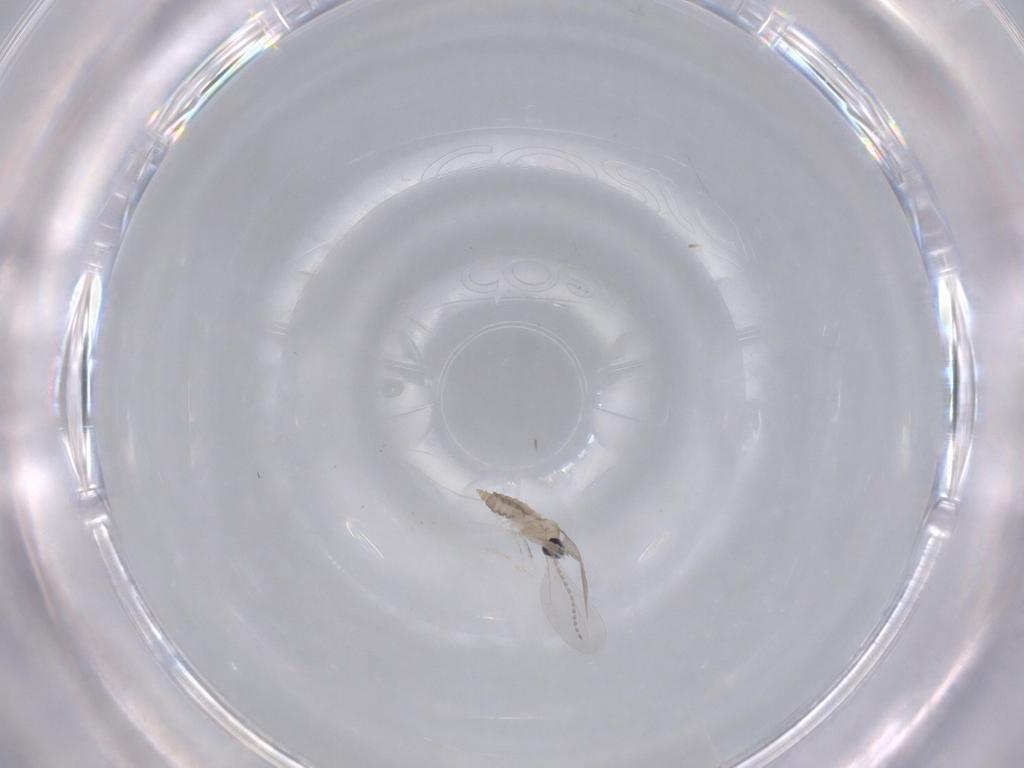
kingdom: Animalia
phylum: Arthropoda
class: Insecta
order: Diptera
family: Cecidomyiidae
